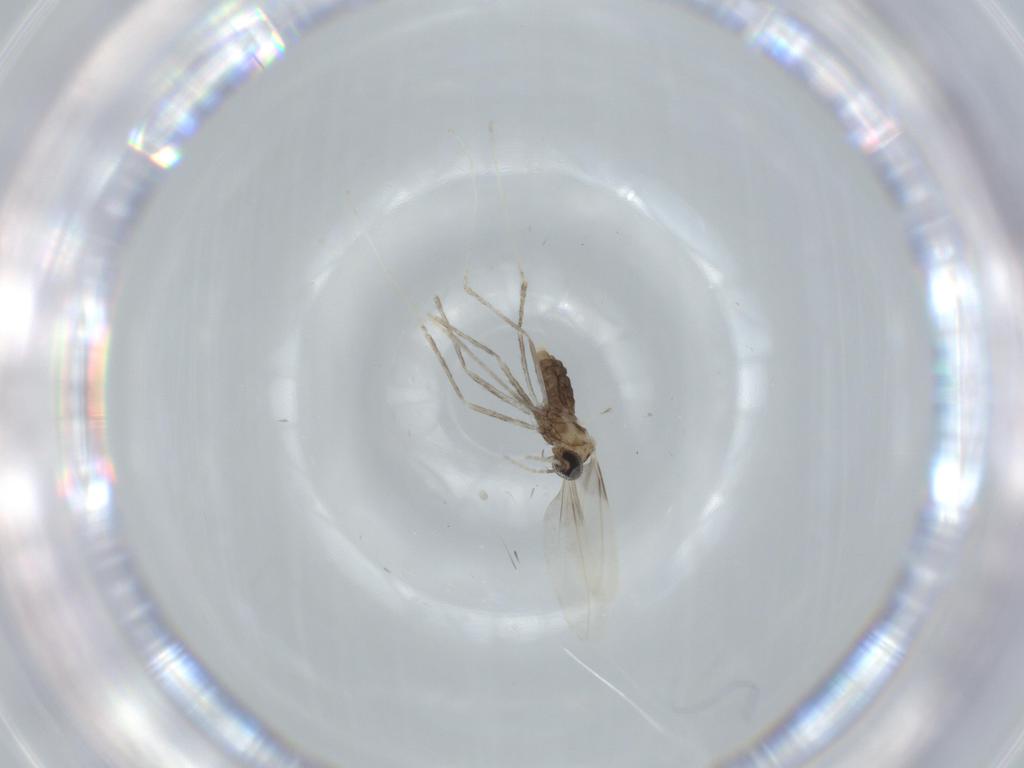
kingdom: Animalia
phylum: Arthropoda
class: Insecta
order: Diptera
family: Cecidomyiidae
